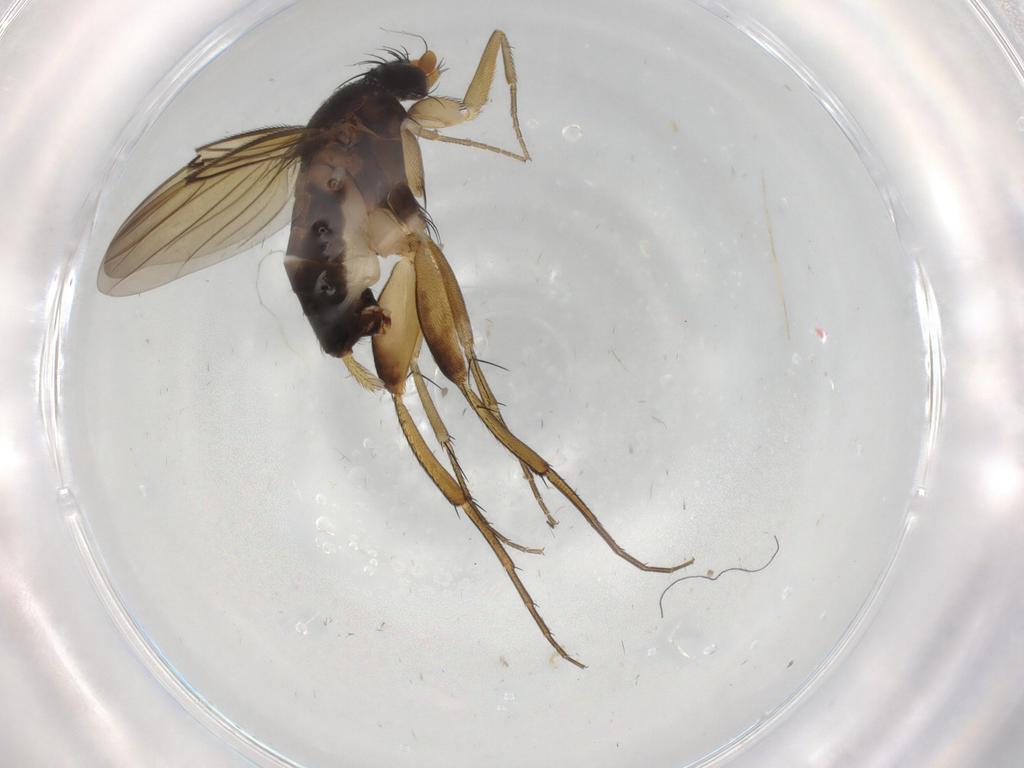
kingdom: Animalia
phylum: Arthropoda
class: Insecta
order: Diptera
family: Phoridae
